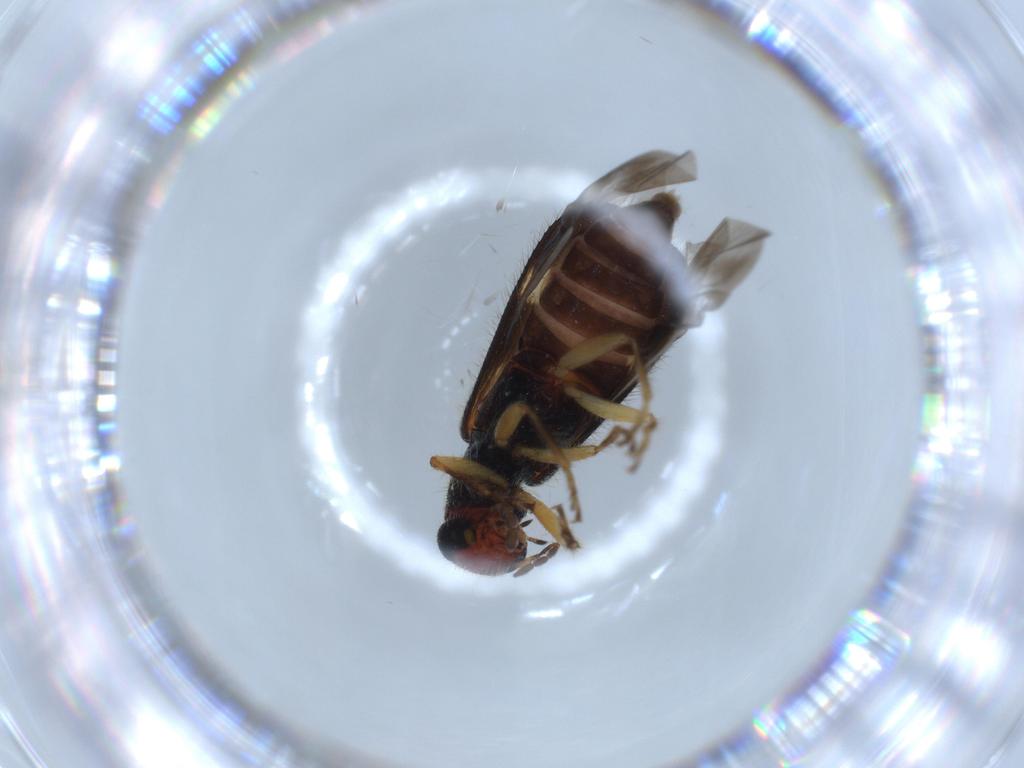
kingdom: Animalia
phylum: Arthropoda
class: Insecta
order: Coleoptera
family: Cleridae
